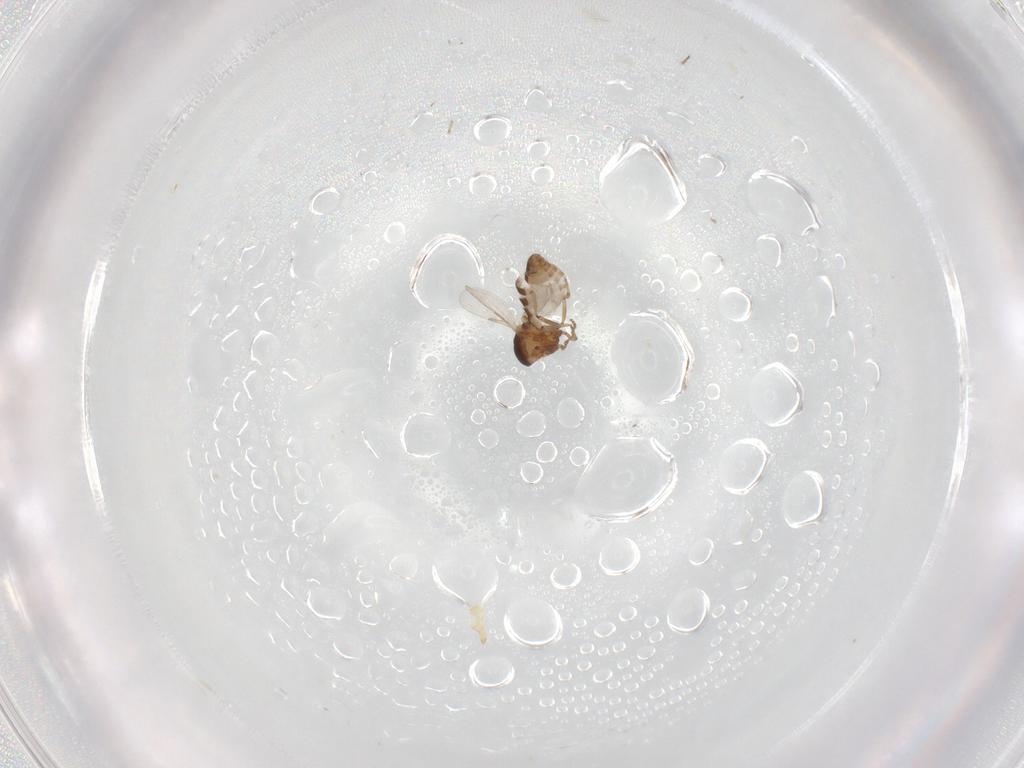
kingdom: Animalia
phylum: Arthropoda
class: Insecta
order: Diptera
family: Ceratopogonidae
